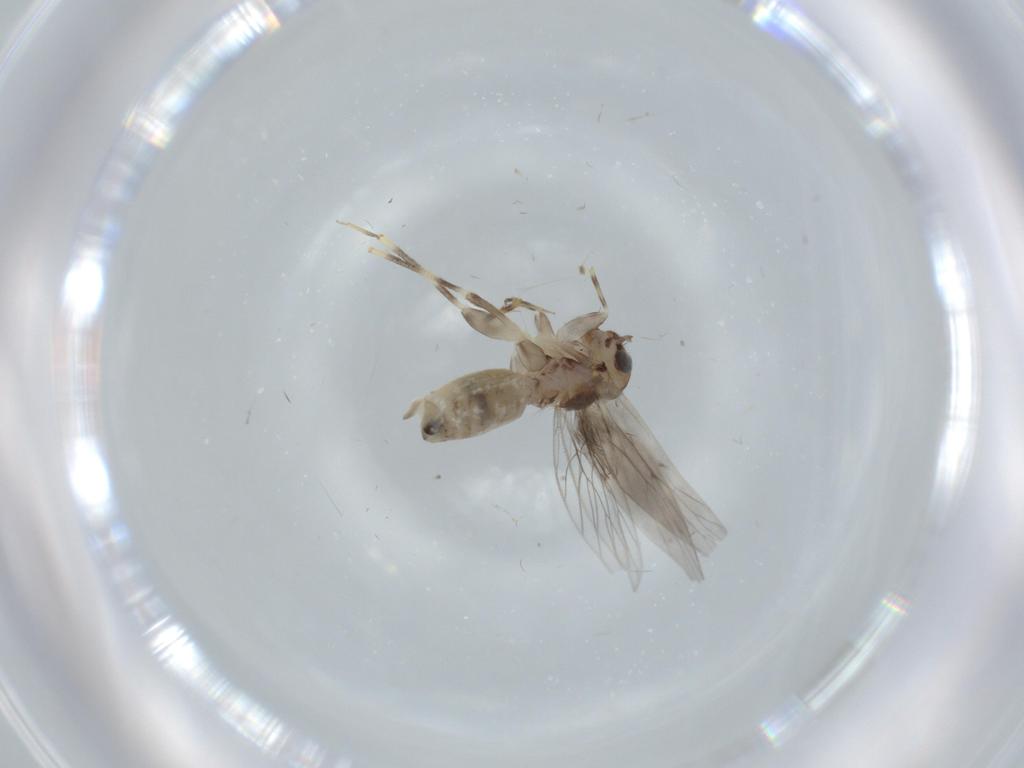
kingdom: Animalia
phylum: Arthropoda
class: Insecta
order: Psocodea
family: Lepidopsocidae
